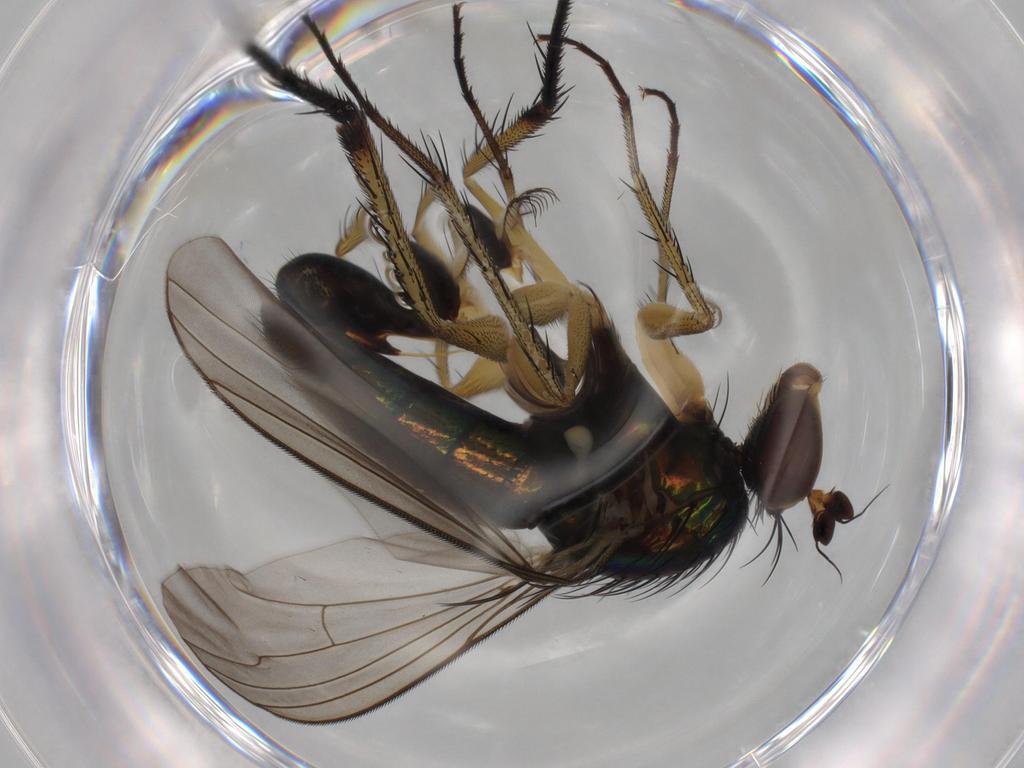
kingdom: Animalia
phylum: Arthropoda
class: Insecta
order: Diptera
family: Dolichopodidae
